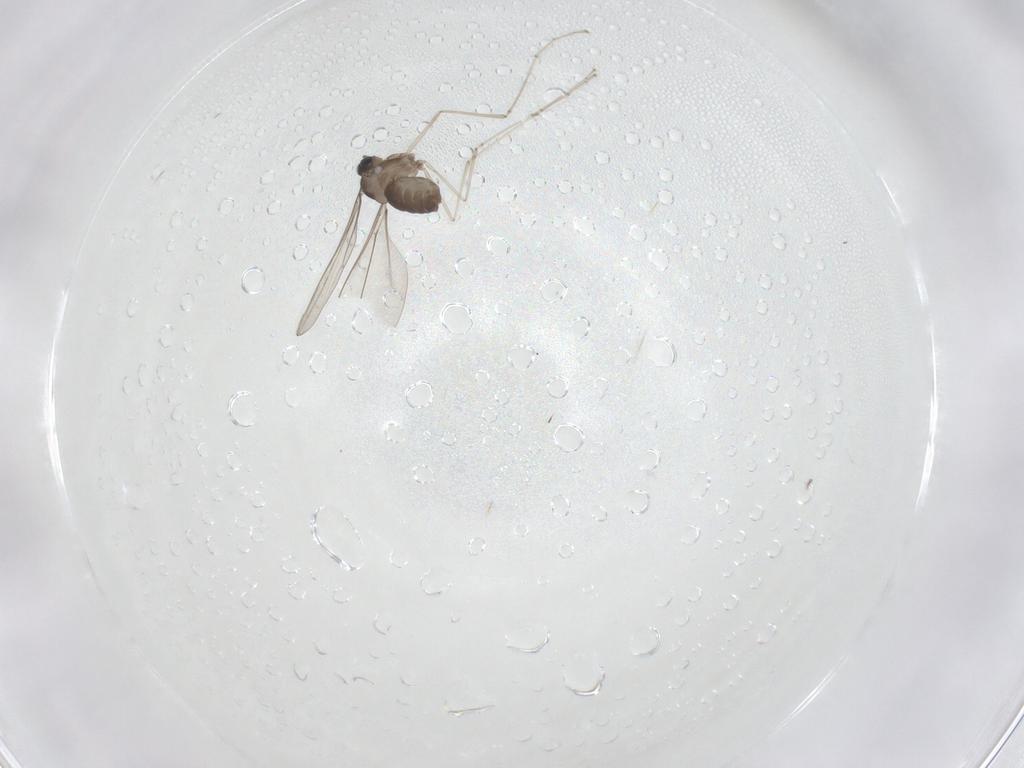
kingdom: Animalia
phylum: Arthropoda
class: Insecta
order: Diptera
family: Cecidomyiidae
